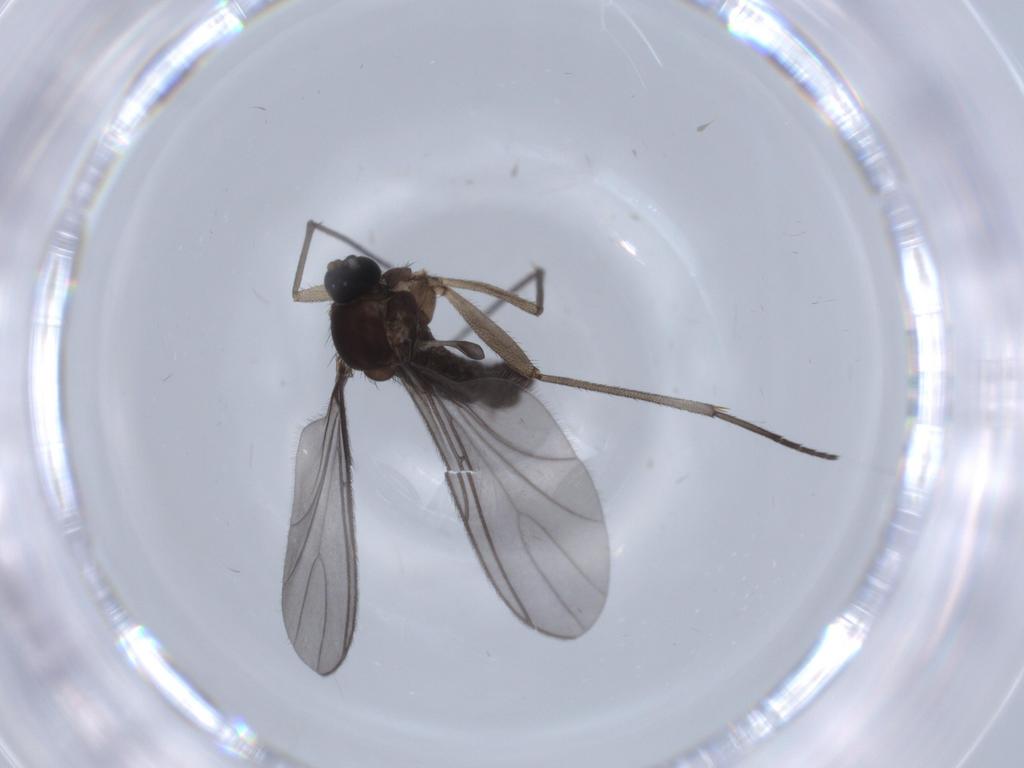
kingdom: Animalia
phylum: Arthropoda
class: Insecta
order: Diptera
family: Sciaridae
